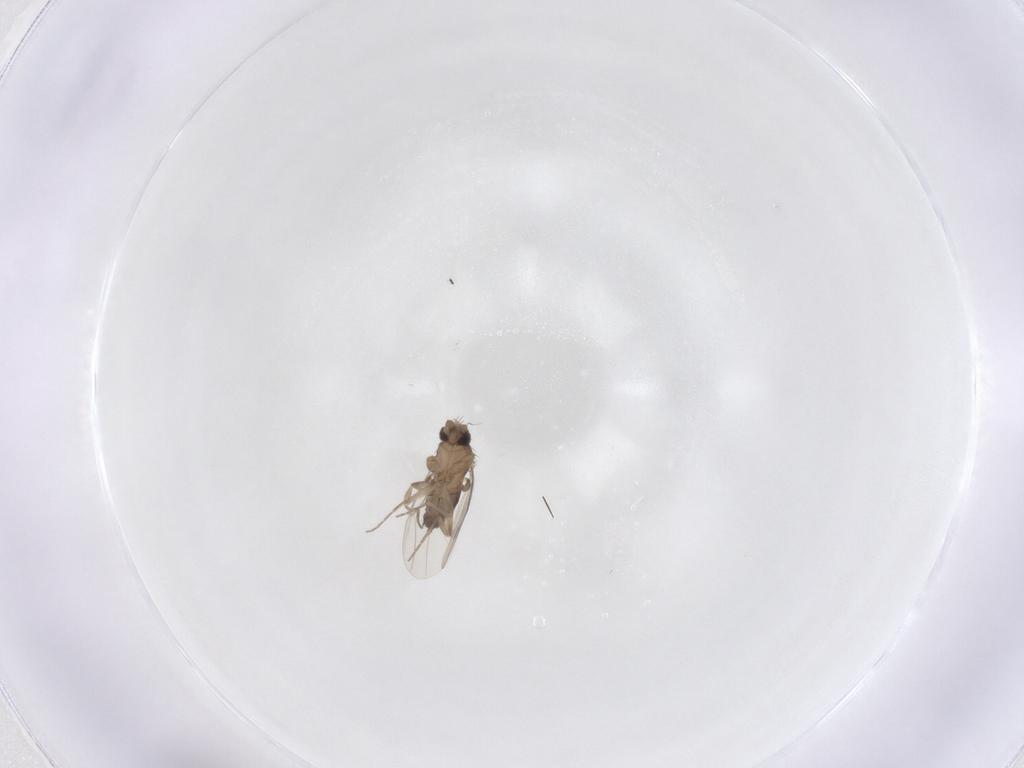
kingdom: Animalia
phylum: Arthropoda
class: Insecta
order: Diptera
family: Phoridae
